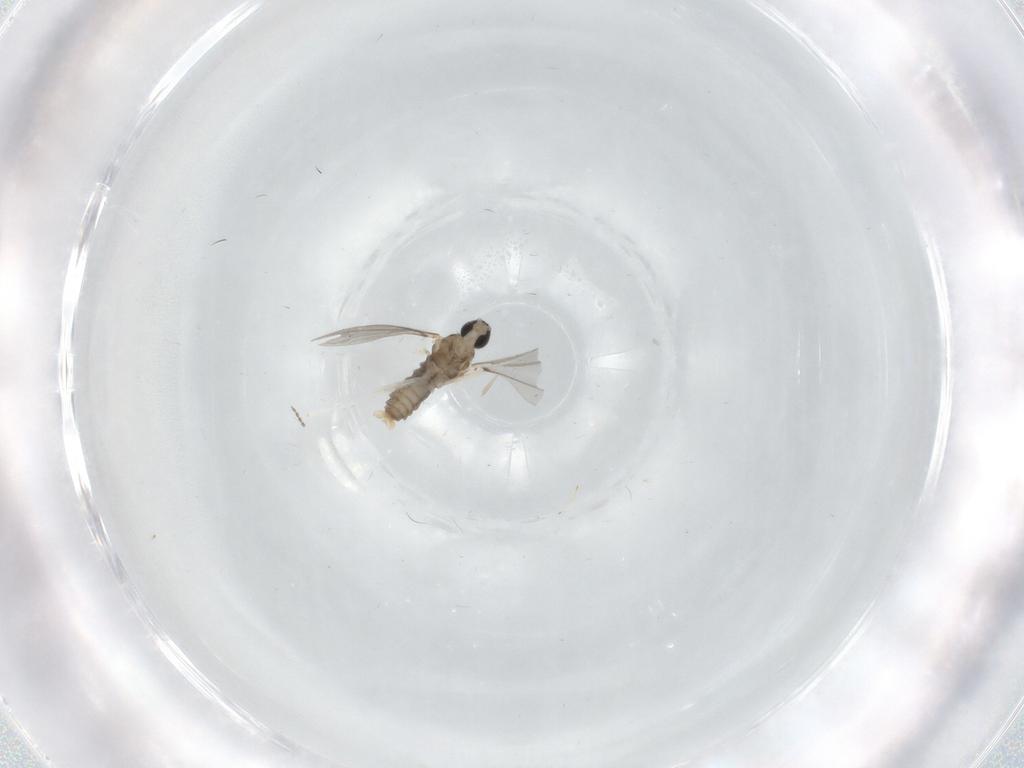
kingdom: Animalia
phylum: Arthropoda
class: Insecta
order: Diptera
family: Cecidomyiidae
